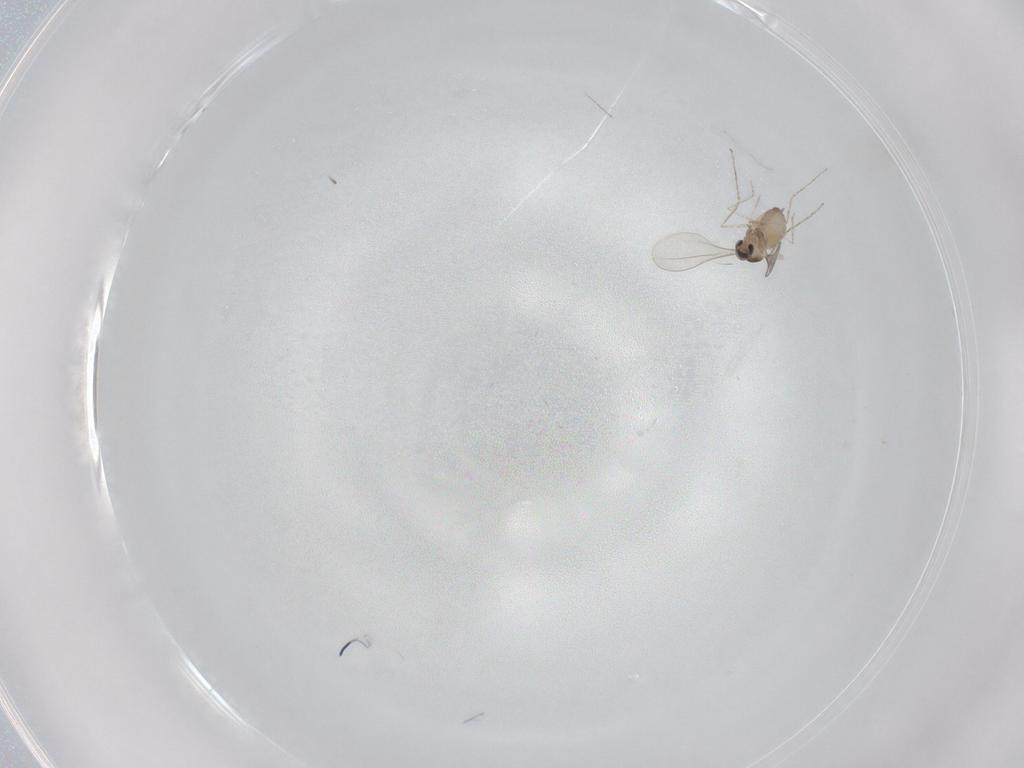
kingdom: Animalia
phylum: Arthropoda
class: Insecta
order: Diptera
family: Cecidomyiidae
